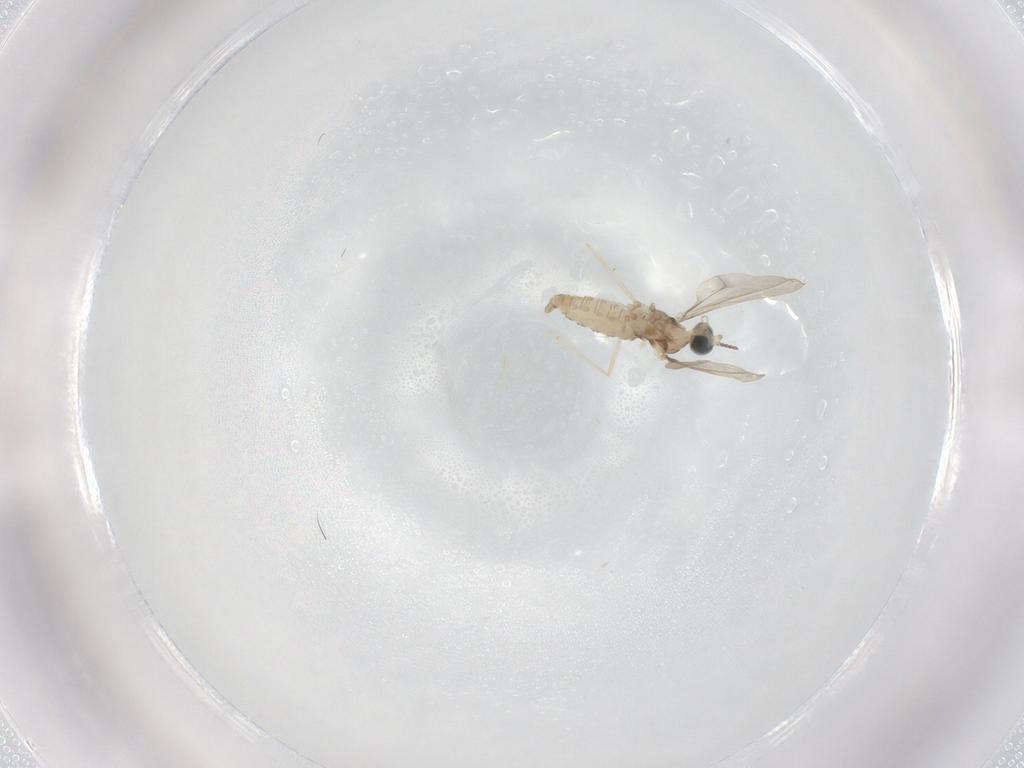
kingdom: Animalia
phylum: Arthropoda
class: Insecta
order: Diptera
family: Cecidomyiidae
